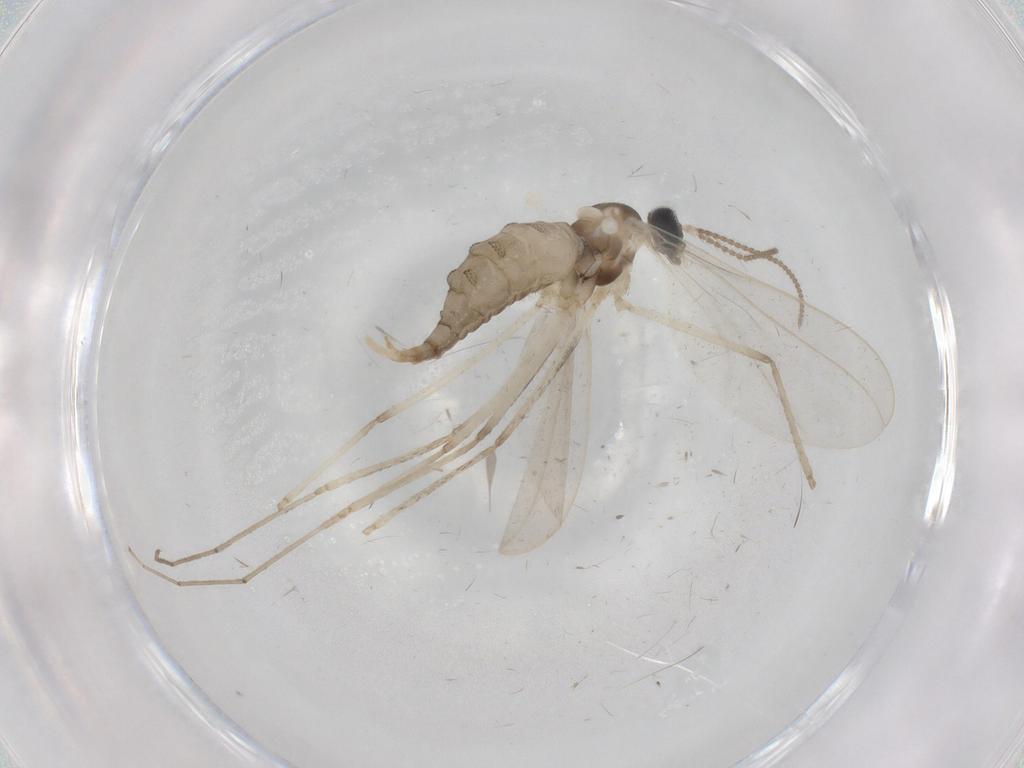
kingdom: Animalia
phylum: Arthropoda
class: Insecta
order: Diptera
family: Cecidomyiidae
